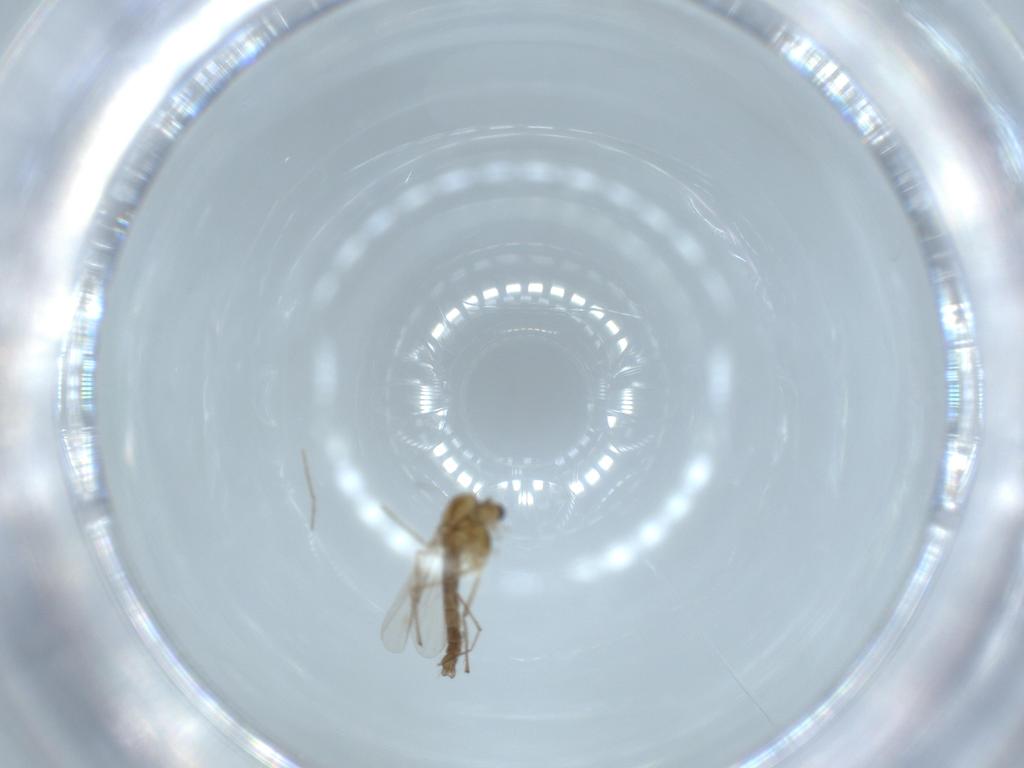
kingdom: Animalia
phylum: Arthropoda
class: Insecta
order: Diptera
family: Chironomidae
